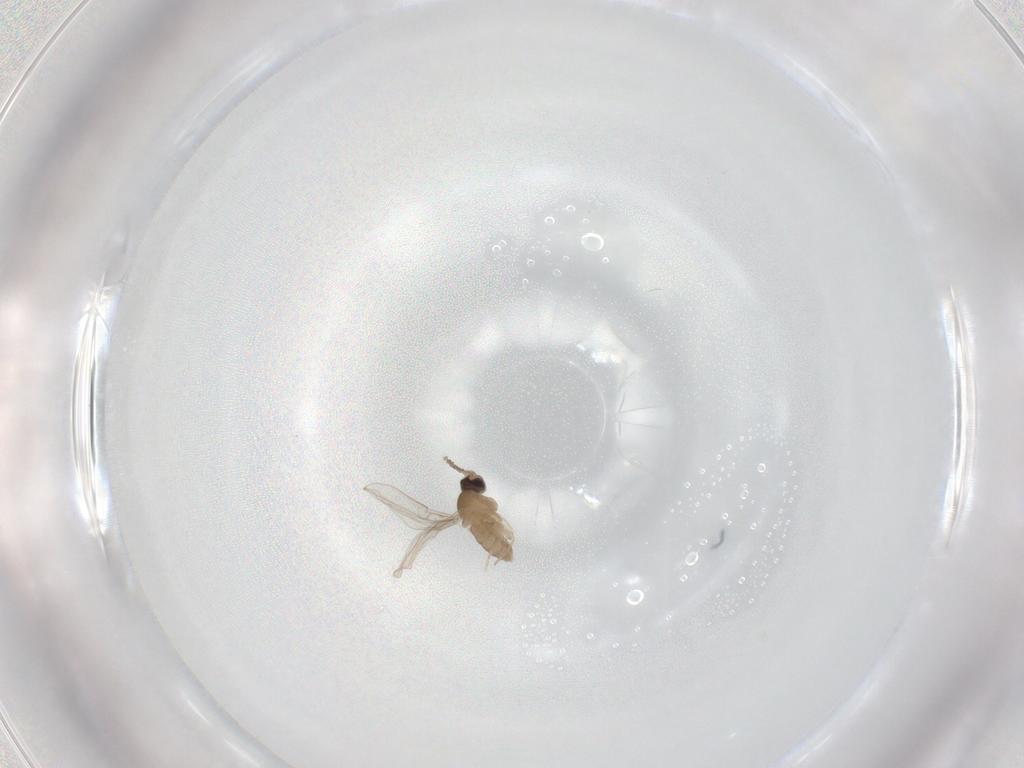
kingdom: Animalia
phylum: Arthropoda
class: Insecta
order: Diptera
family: Cecidomyiidae
